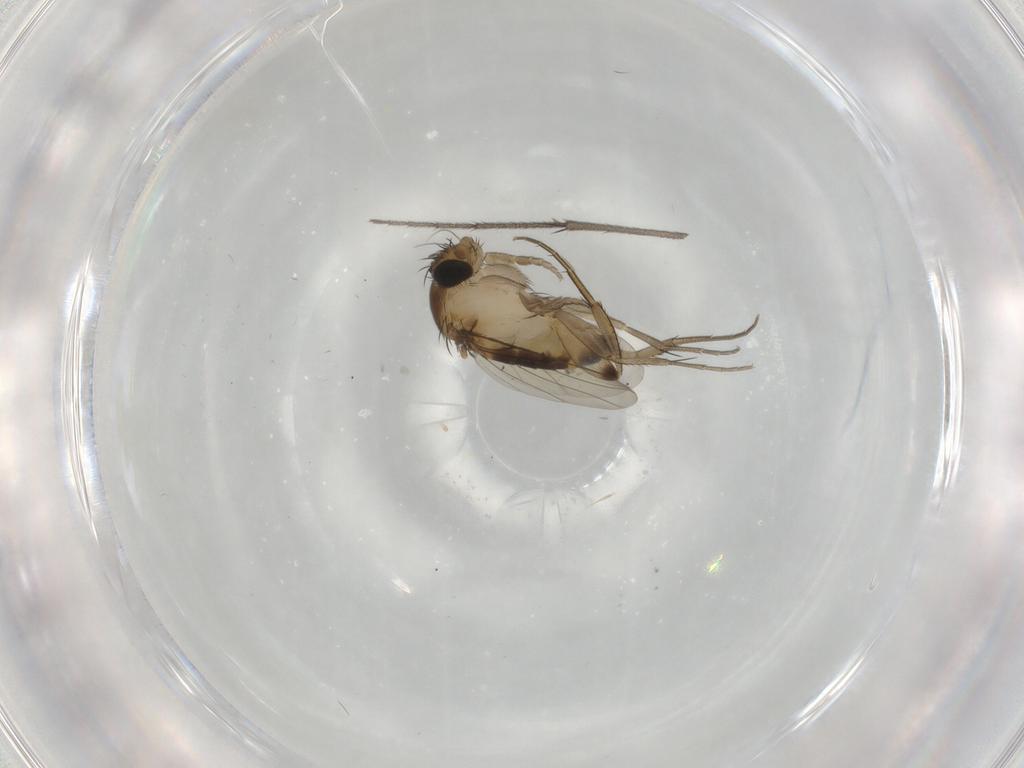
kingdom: Animalia
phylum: Arthropoda
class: Insecta
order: Diptera
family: Ditomyiidae
